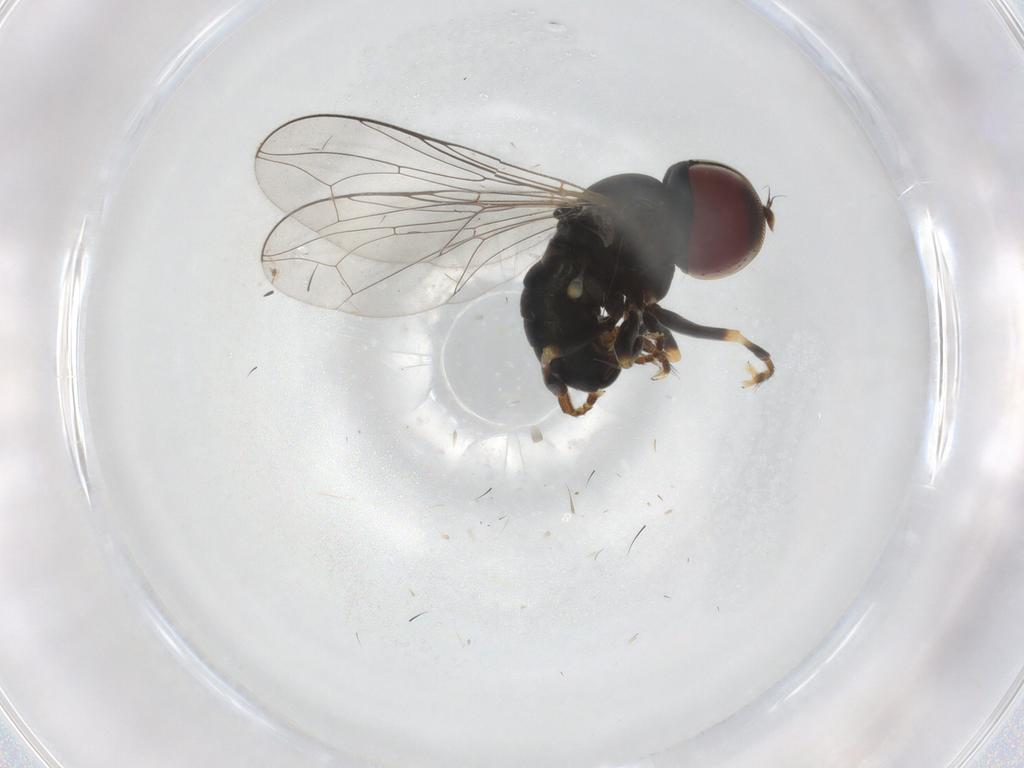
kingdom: Animalia
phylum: Arthropoda
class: Insecta
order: Diptera
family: Pipunculidae
